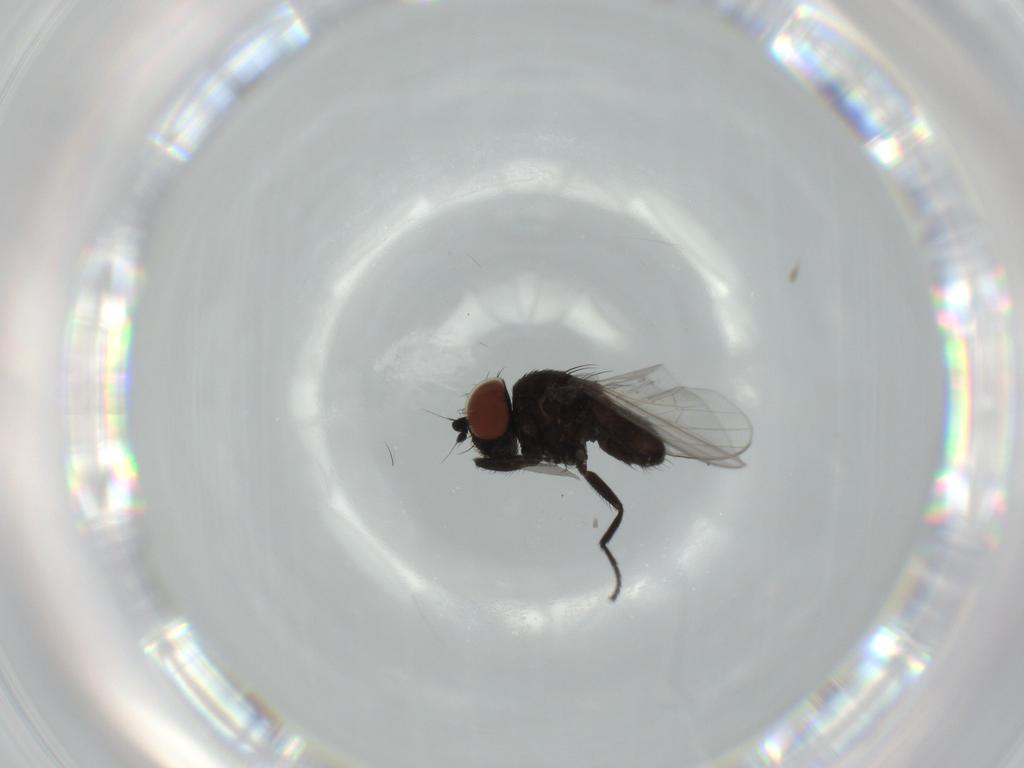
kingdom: Animalia
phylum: Arthropoda
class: Insecta
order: Diptera
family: Milichiidae
